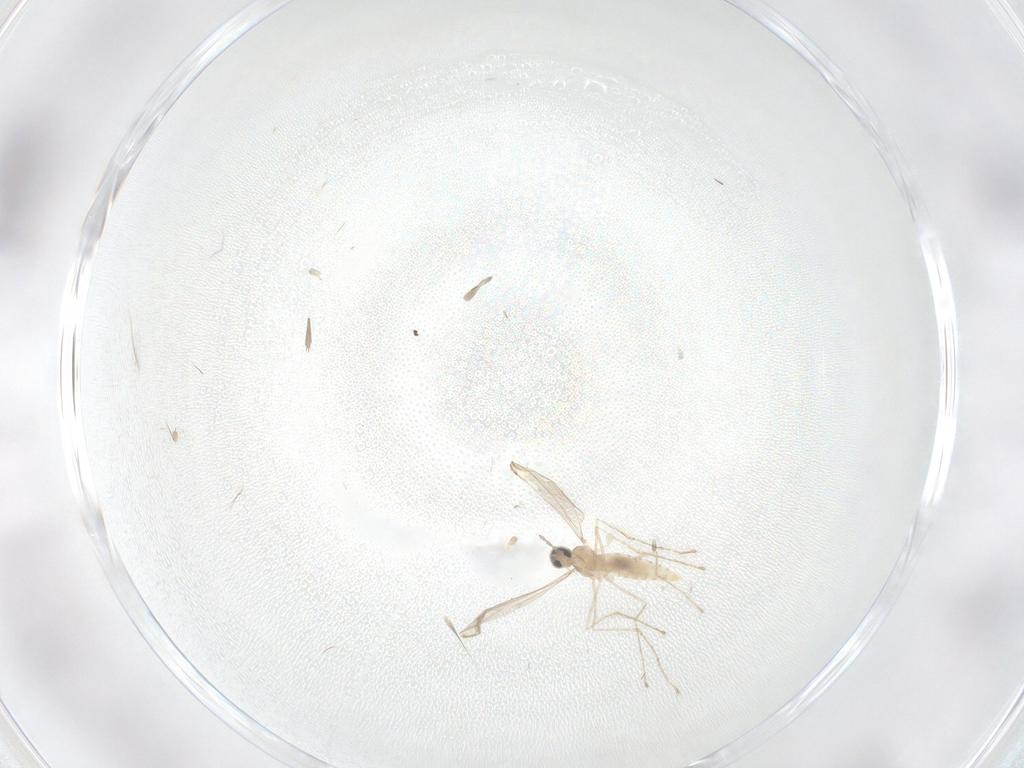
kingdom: Animalia
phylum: Arthropoda
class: Insecta
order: Diptera
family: Cecidomyiidae
